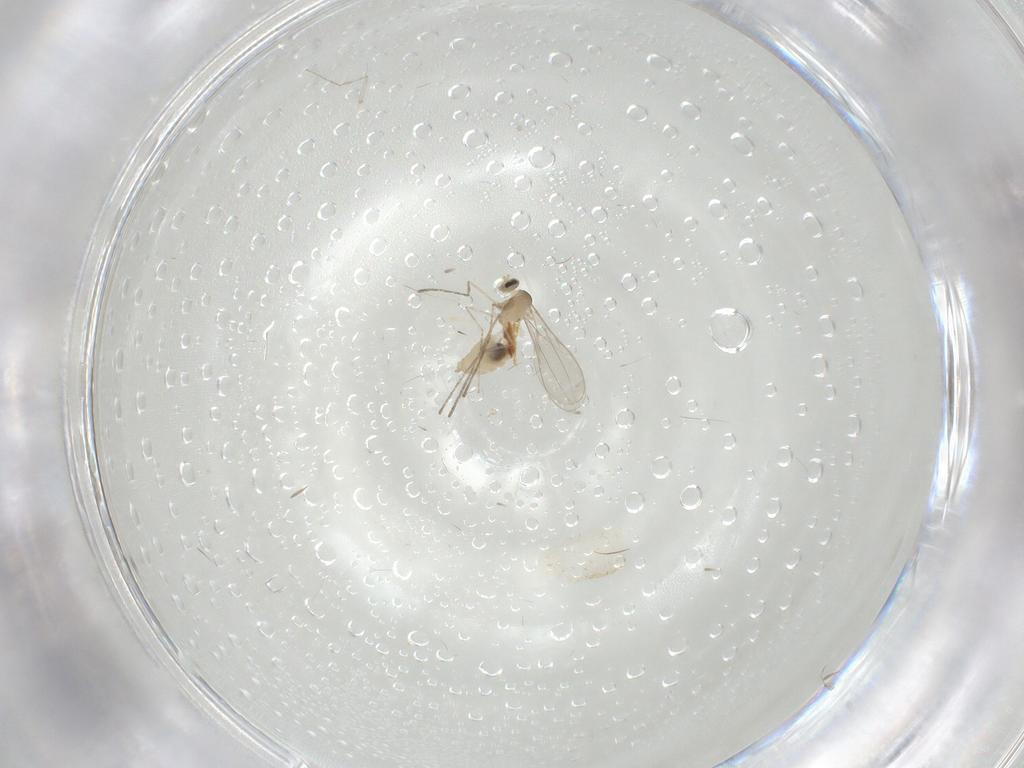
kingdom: Animalia
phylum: Arthropoda
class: Insecta
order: Diptera
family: Cecidomyiidae
